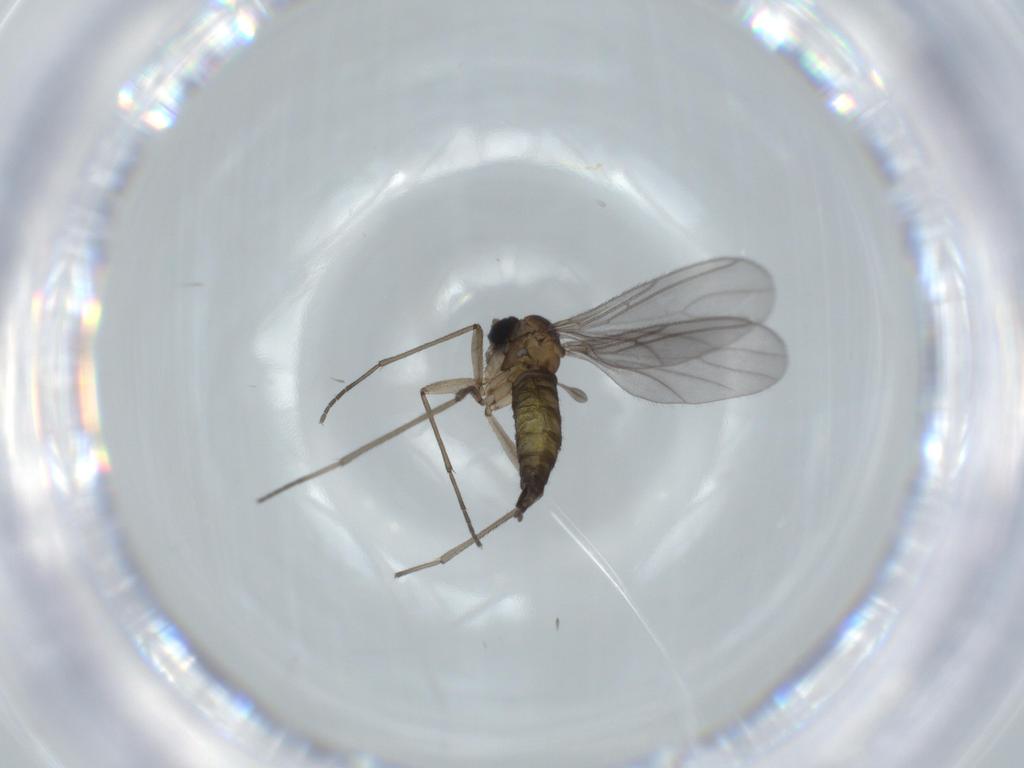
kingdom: Animalia
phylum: Arthropoda
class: Insecta
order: Diptera
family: Sciaridae
